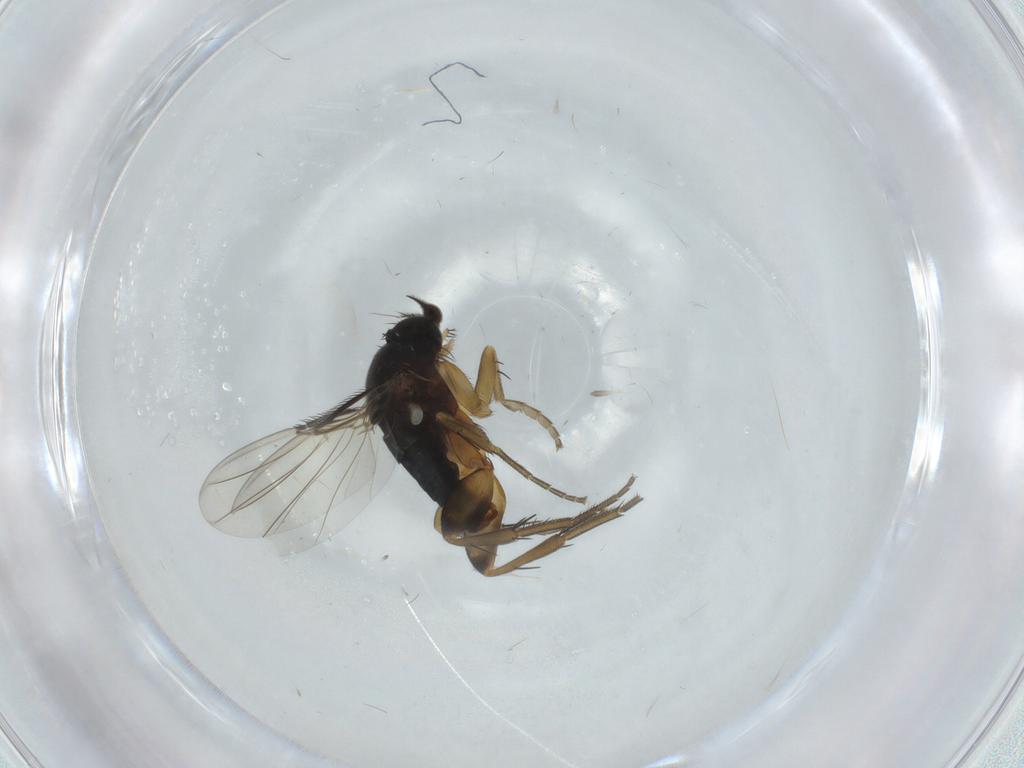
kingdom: Animalia
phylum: Arthropoda
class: Insecta
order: Diptera
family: Phoridae
